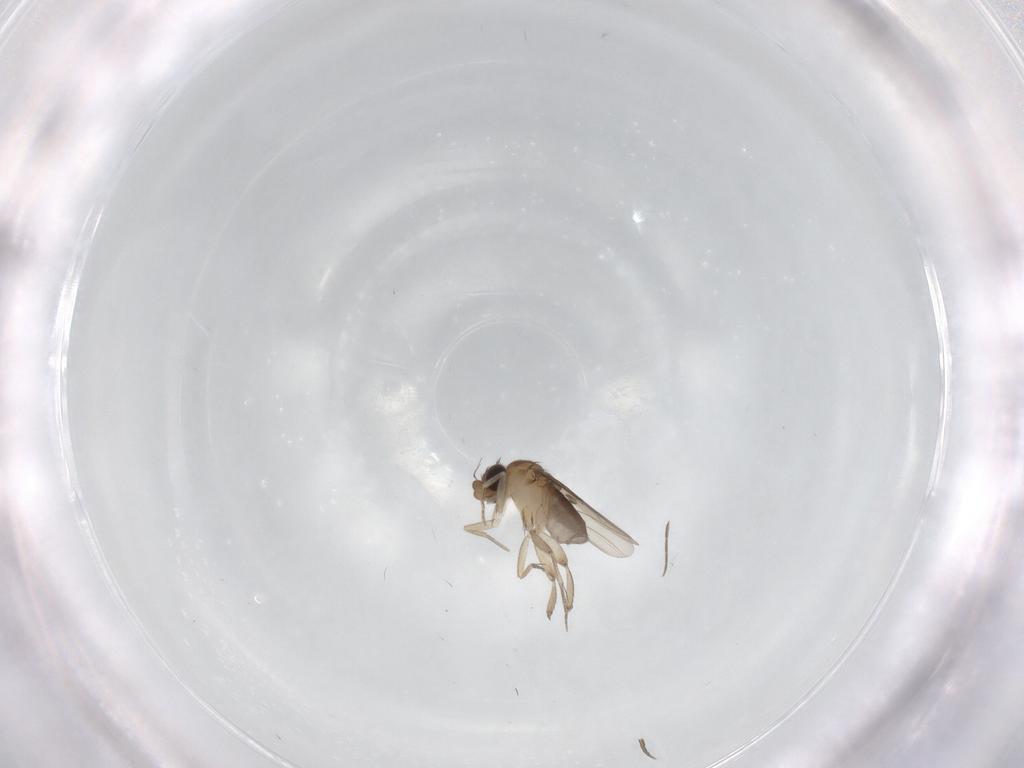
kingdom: Animalia
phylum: Arthropoda
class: Insecta
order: Diptera
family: Phoridae
